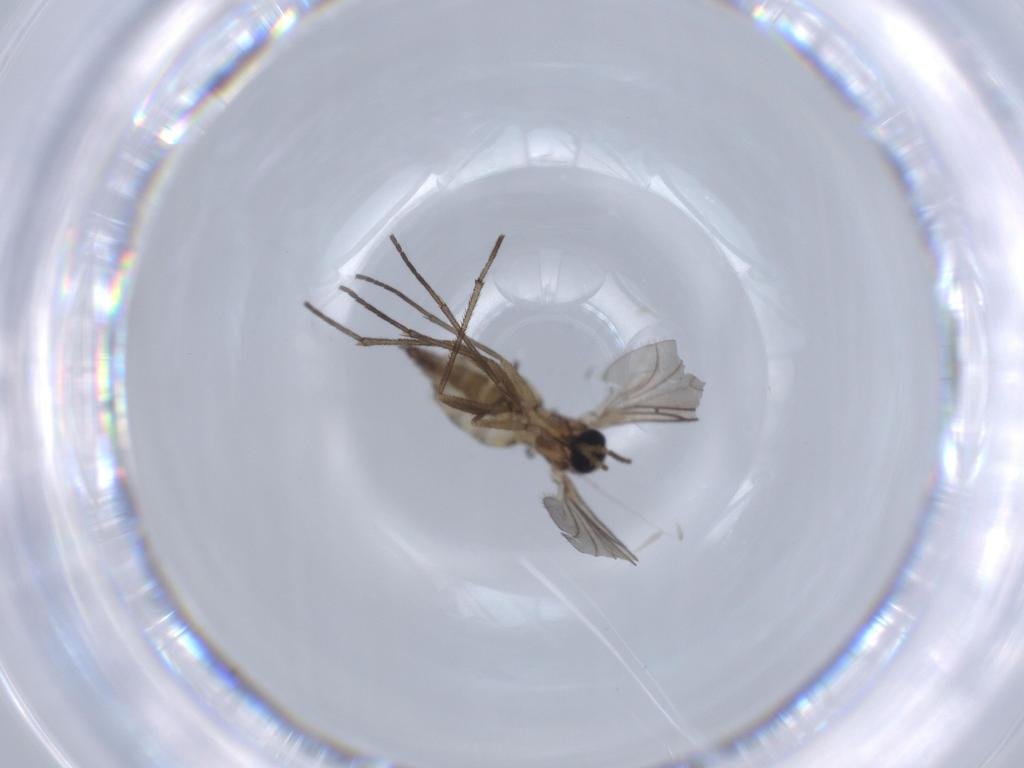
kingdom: Animalia
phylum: Arthropoda
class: Insecta
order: Diptera
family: Sciaridae
